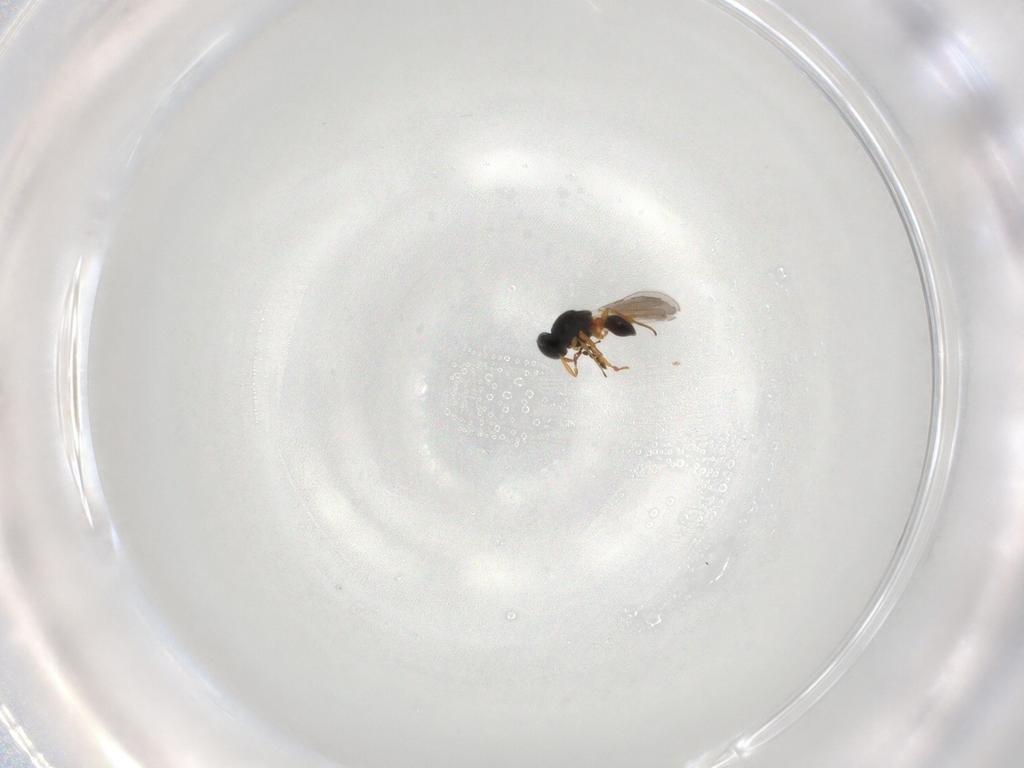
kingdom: Animalia
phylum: Arthropoda
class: Insecta
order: Hymenoptera
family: Platygastridae
